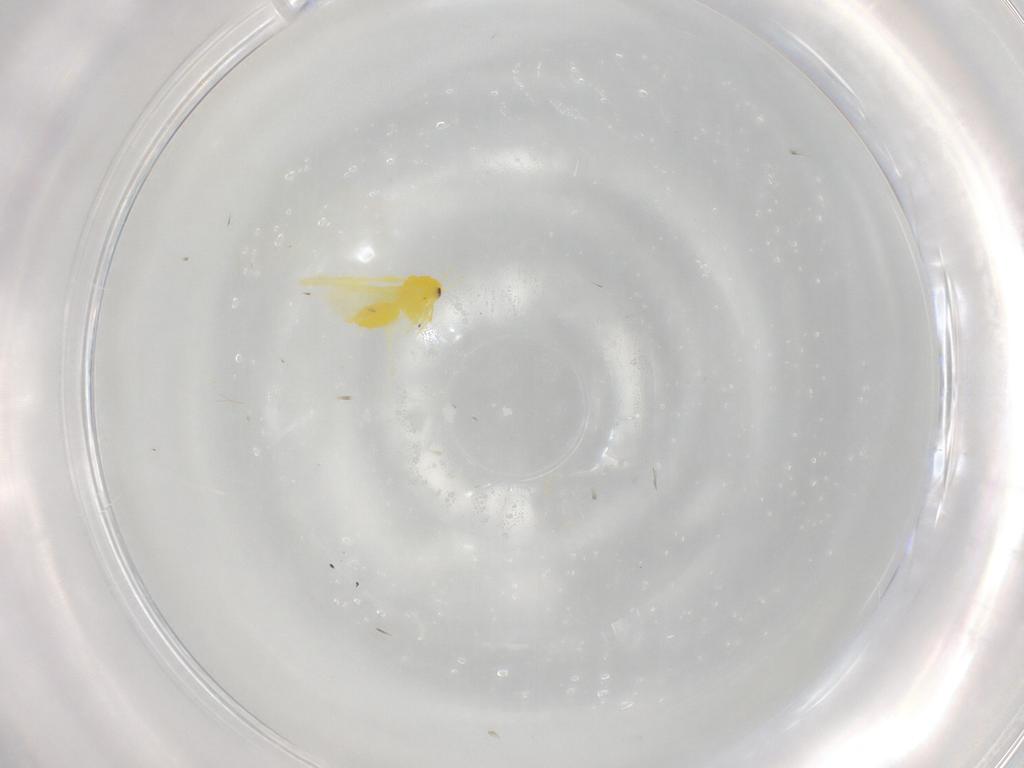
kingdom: Animalia
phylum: Arthropoda
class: Insecta
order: Hemiptera
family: Aleyrodidae
